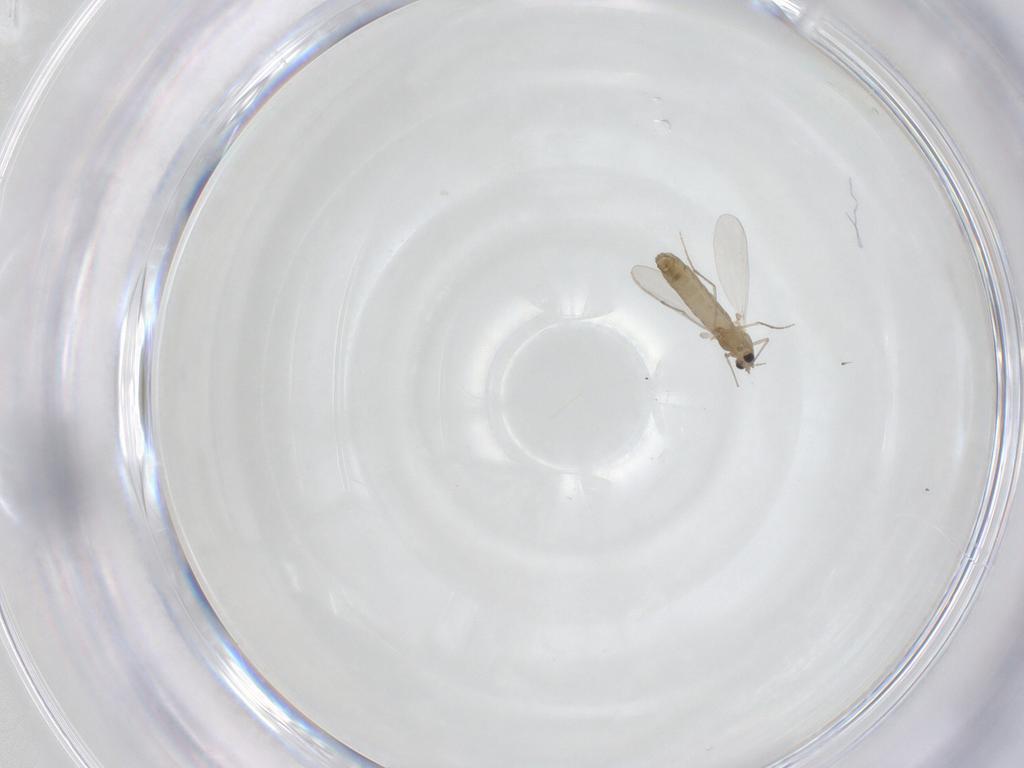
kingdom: Animalia
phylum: Arthropoda
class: Insecta
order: Diptera
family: Chironomidae
